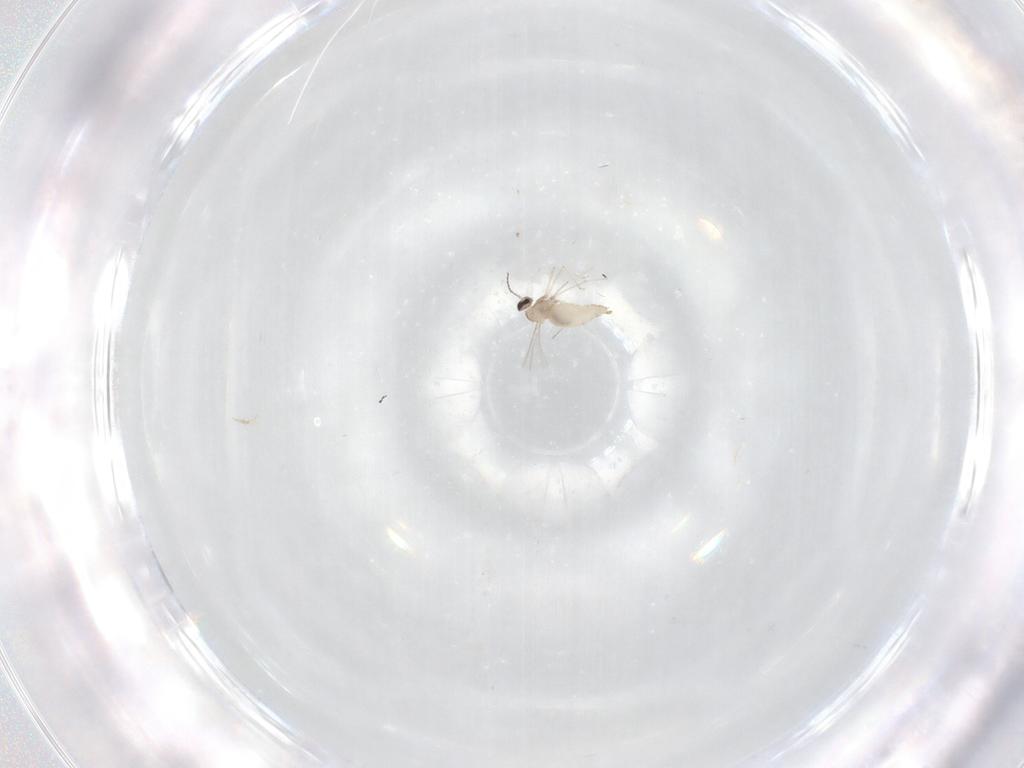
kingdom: Animalia
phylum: Arthropoda
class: Insecta
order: Diptera
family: Cecidomyiidae
